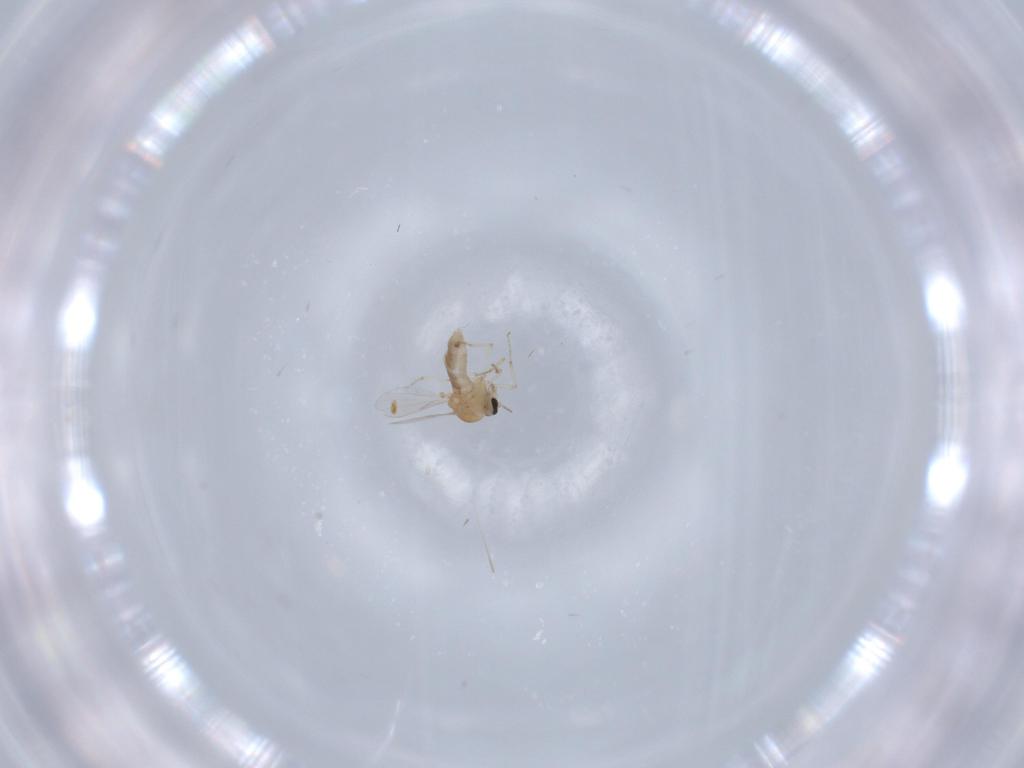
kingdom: Animalia
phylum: Arthropoda
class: Insecta
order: Diptera
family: Ceratopogonidae
